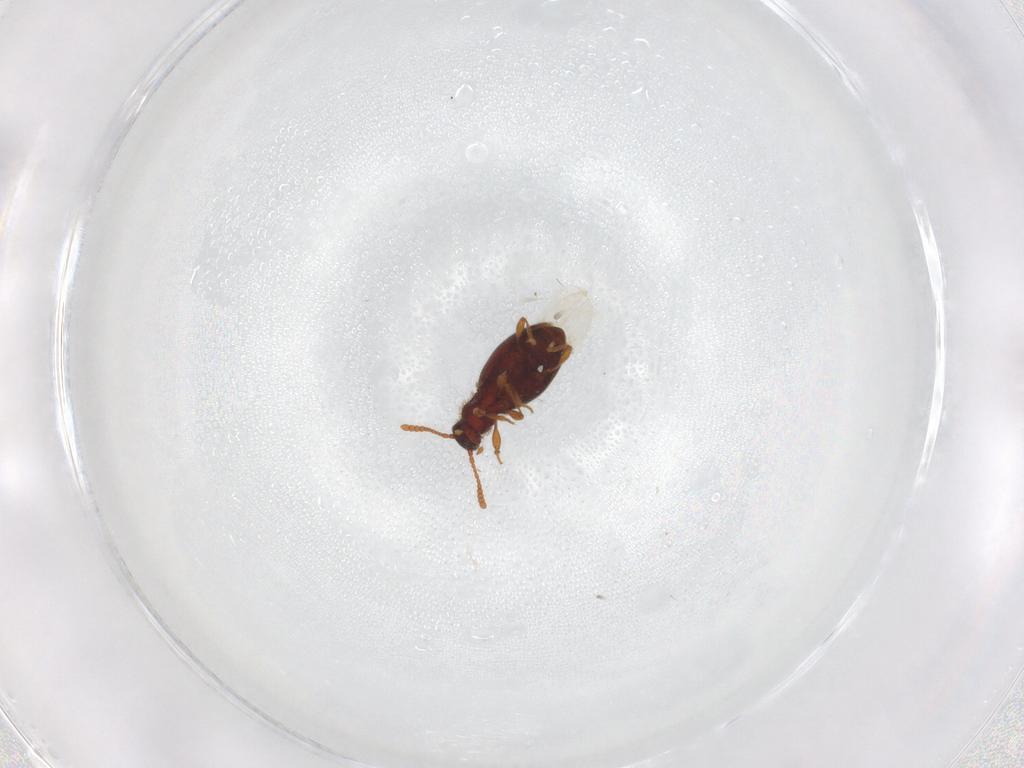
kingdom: Animalia
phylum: Arthropoda
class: Insecta
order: Coleoptera
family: Staphylinidae
